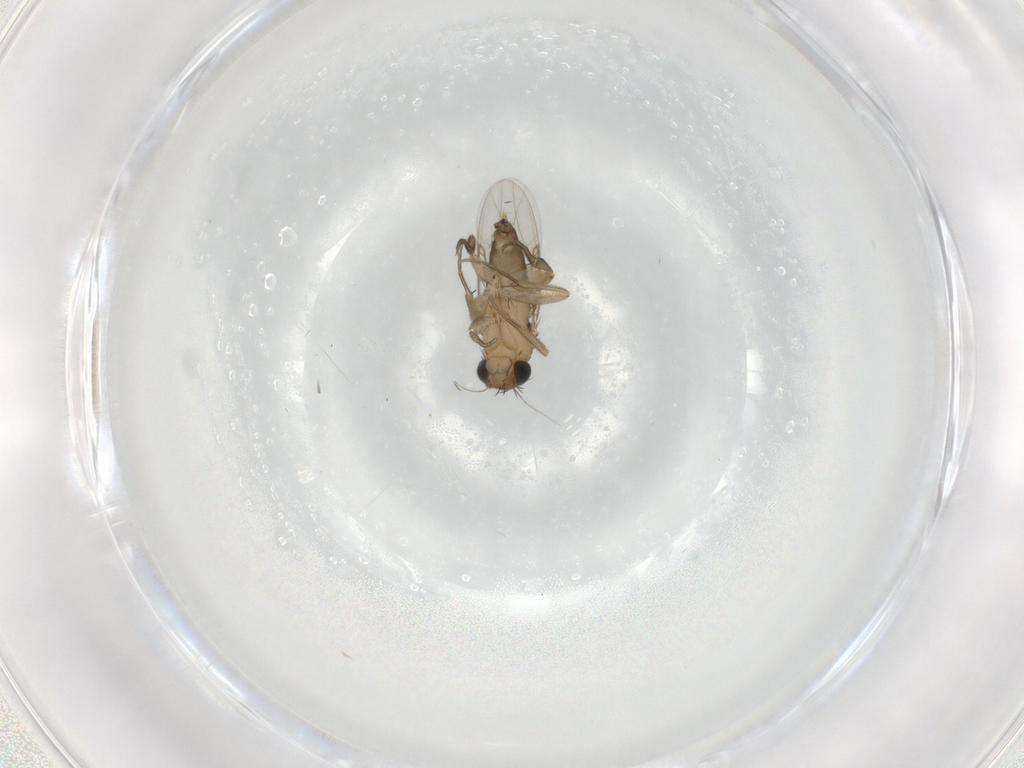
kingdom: Animalia
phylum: Arthropoda
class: Insecta
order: Diptera
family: Phoridae
